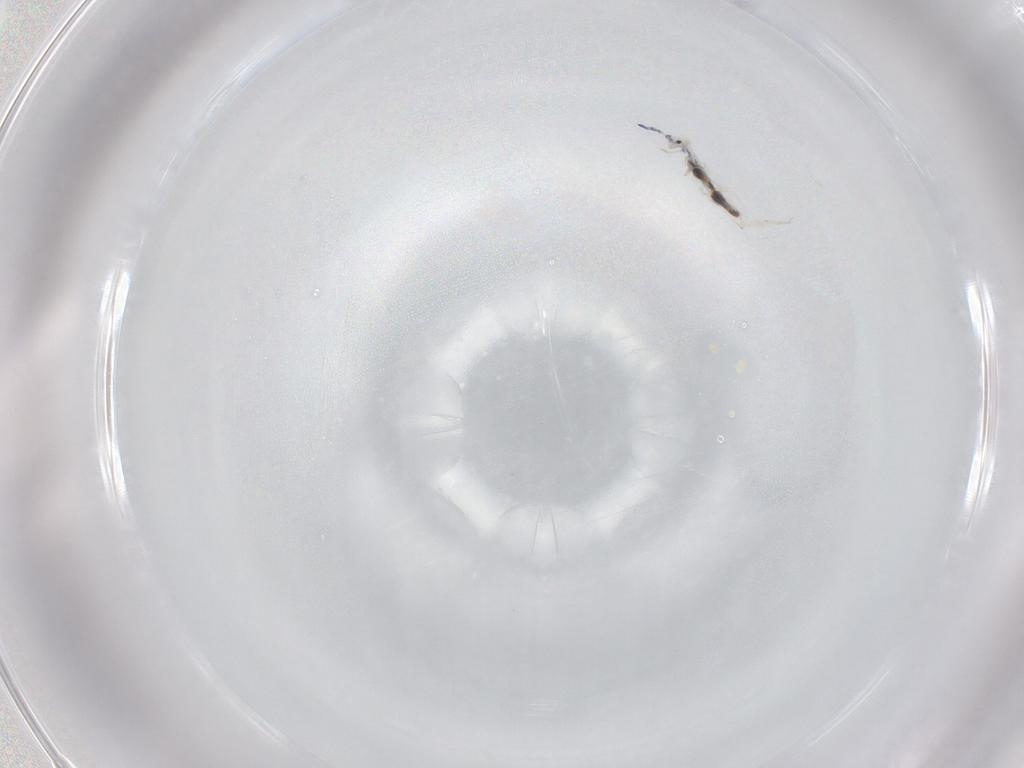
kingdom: Animalia
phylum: Arthropoda
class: Collembola
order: Entomobryomorpha
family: Entomobryidae
